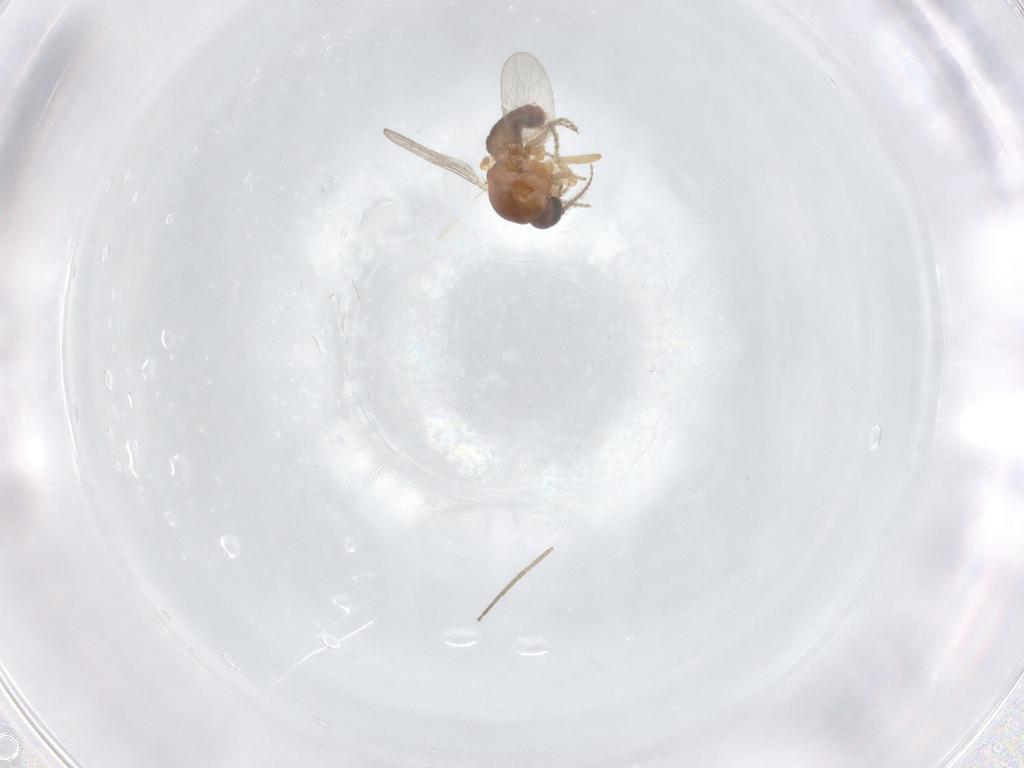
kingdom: Animalia
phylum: Arthropoda
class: Insecta
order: Diptera
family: Ceratopogonidae
